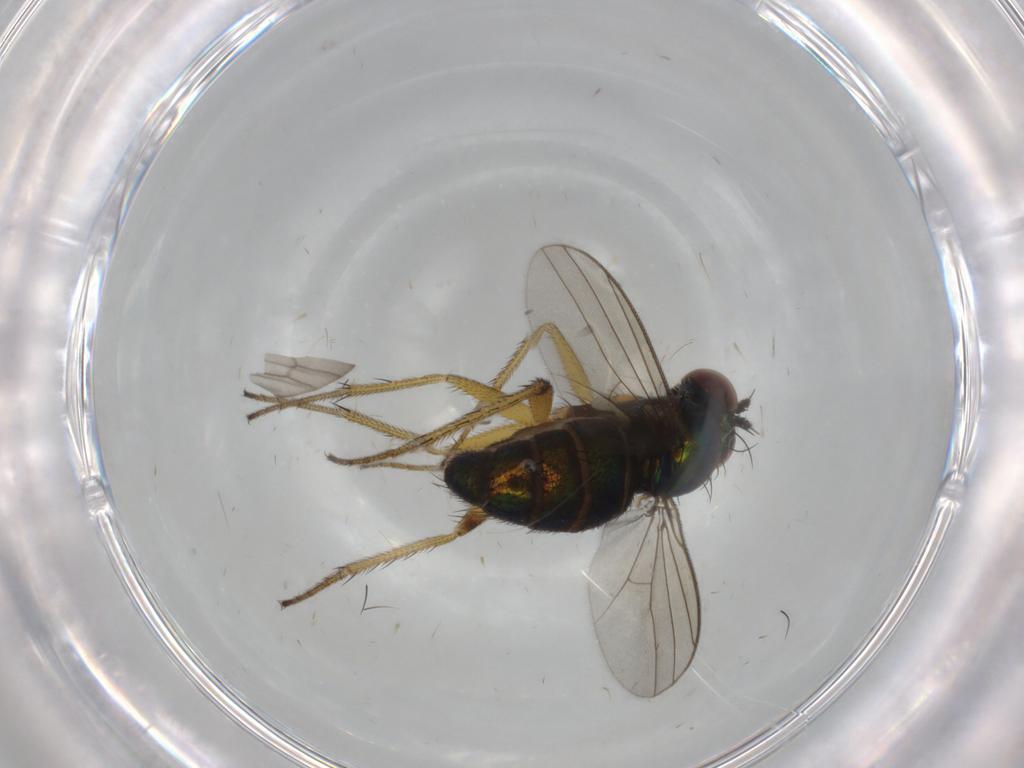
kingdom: Animalia
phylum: Arthropoda
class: Insecta
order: Diptera
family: Dolichopodidae
